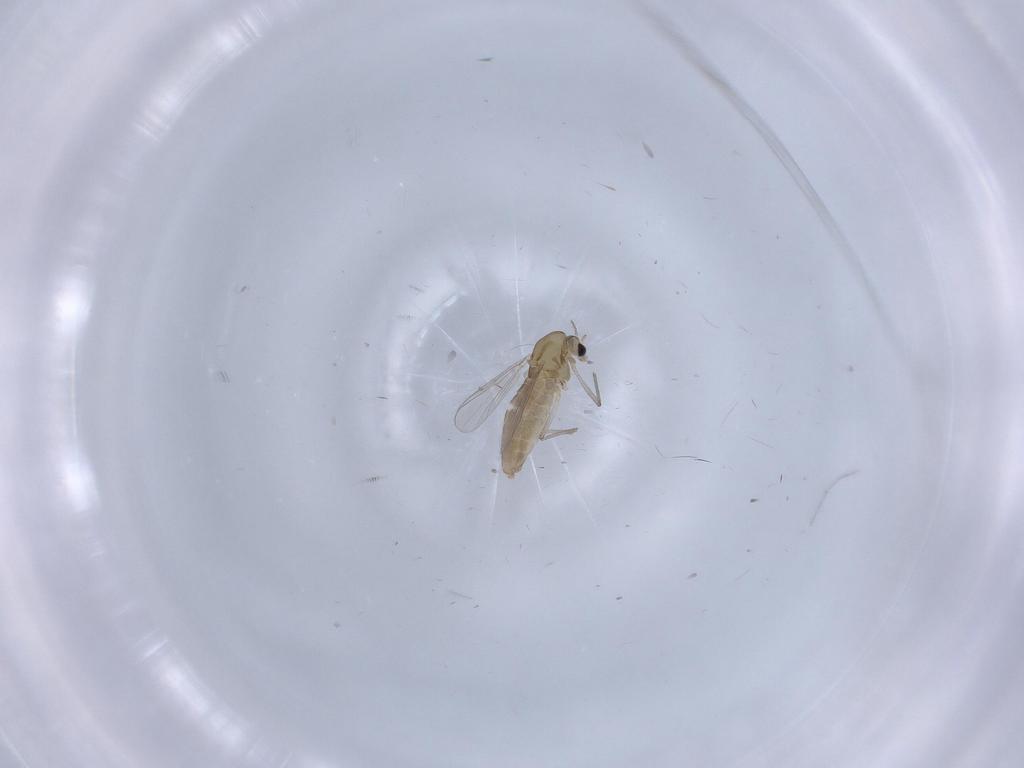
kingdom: Animalia
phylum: Arthropoda
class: Insecta
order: Diptera
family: Chironomidae
